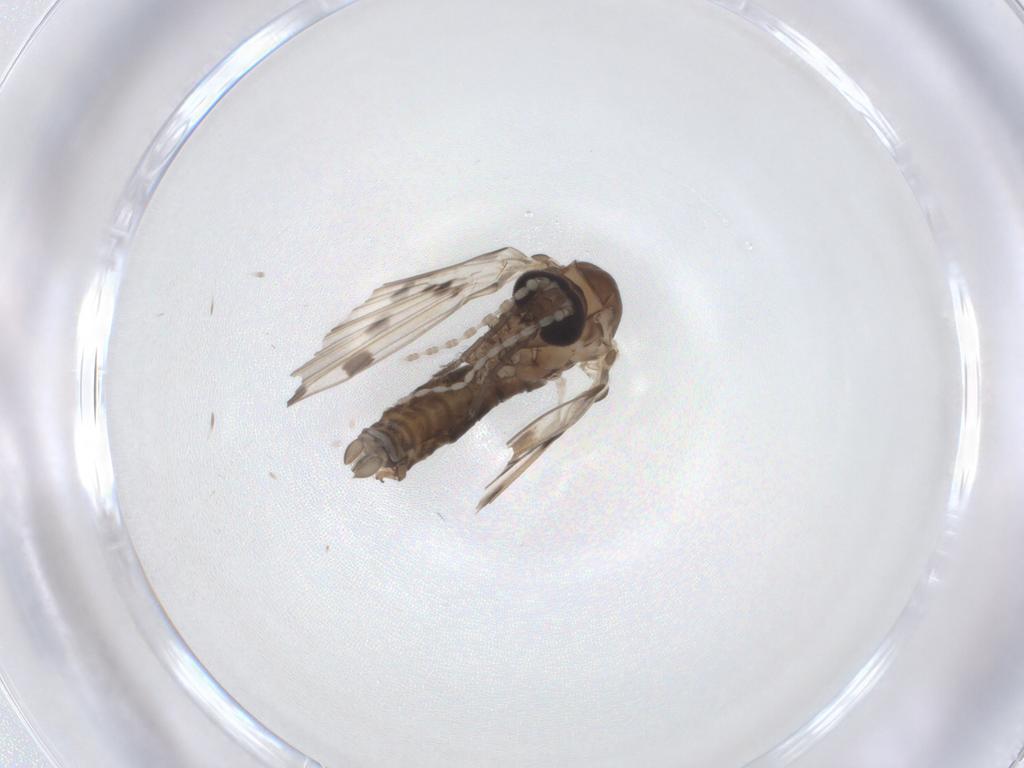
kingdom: Animalia
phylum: Arthropoda
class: Insecta
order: Diptera
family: Psychodidae
